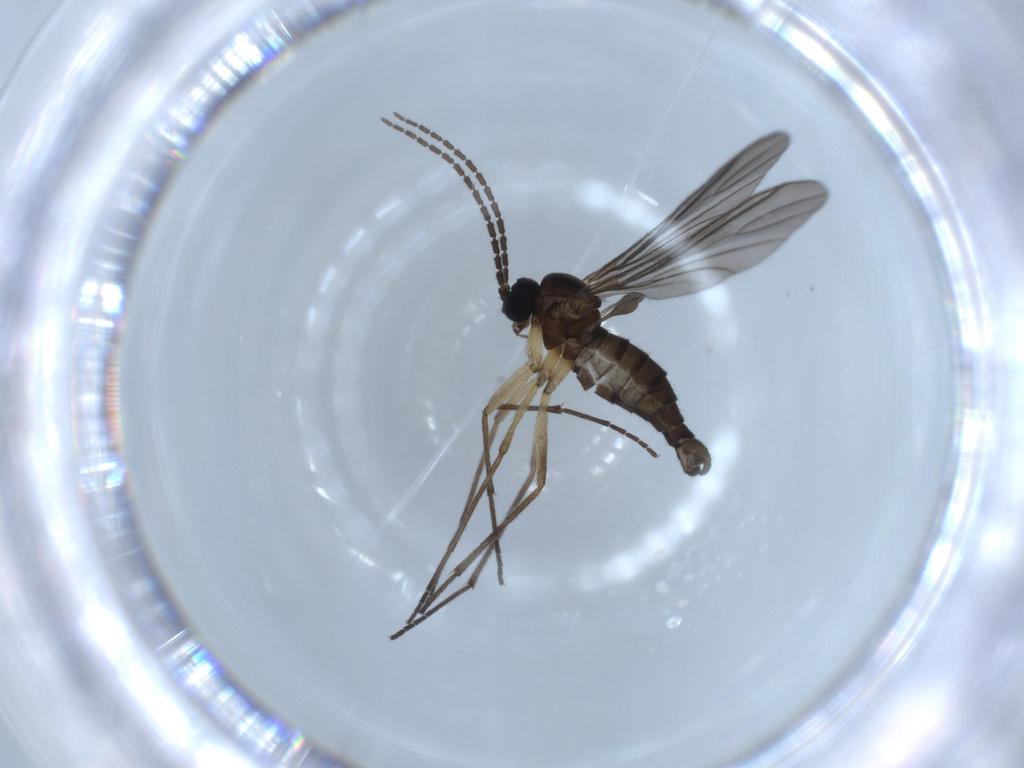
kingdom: Animalia
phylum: Arthropoda
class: Insecta
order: Diptera
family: Sciaridae
